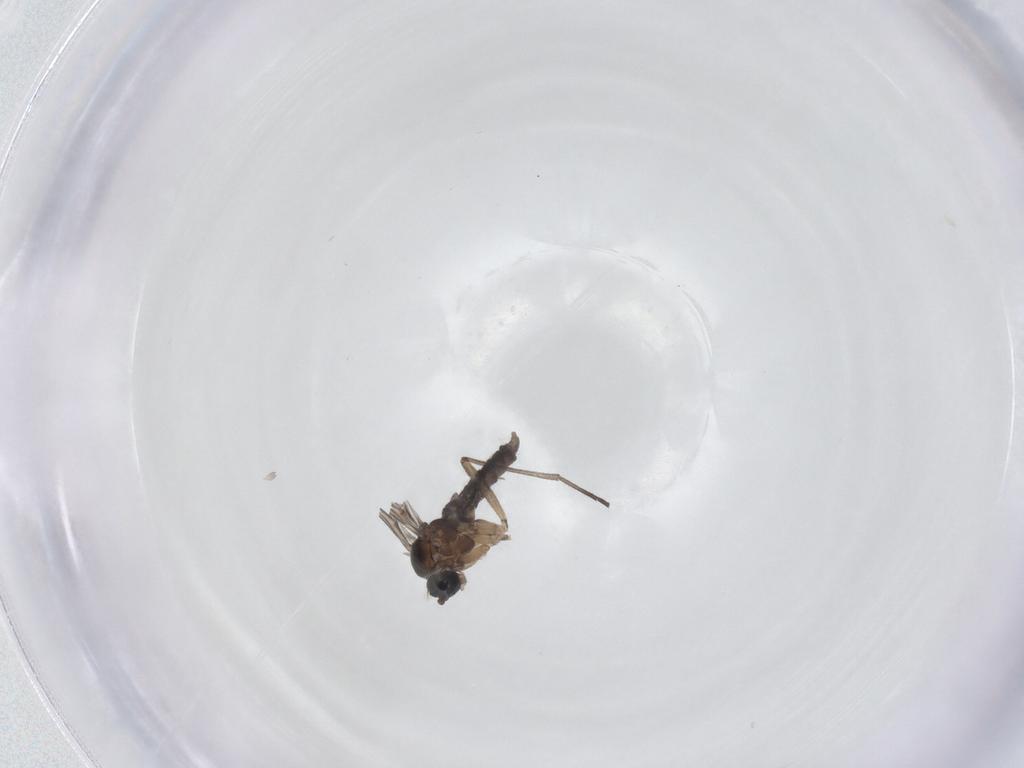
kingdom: Animalia
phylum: Arthropoda
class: Insecta
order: Diptera
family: Sciaridae
